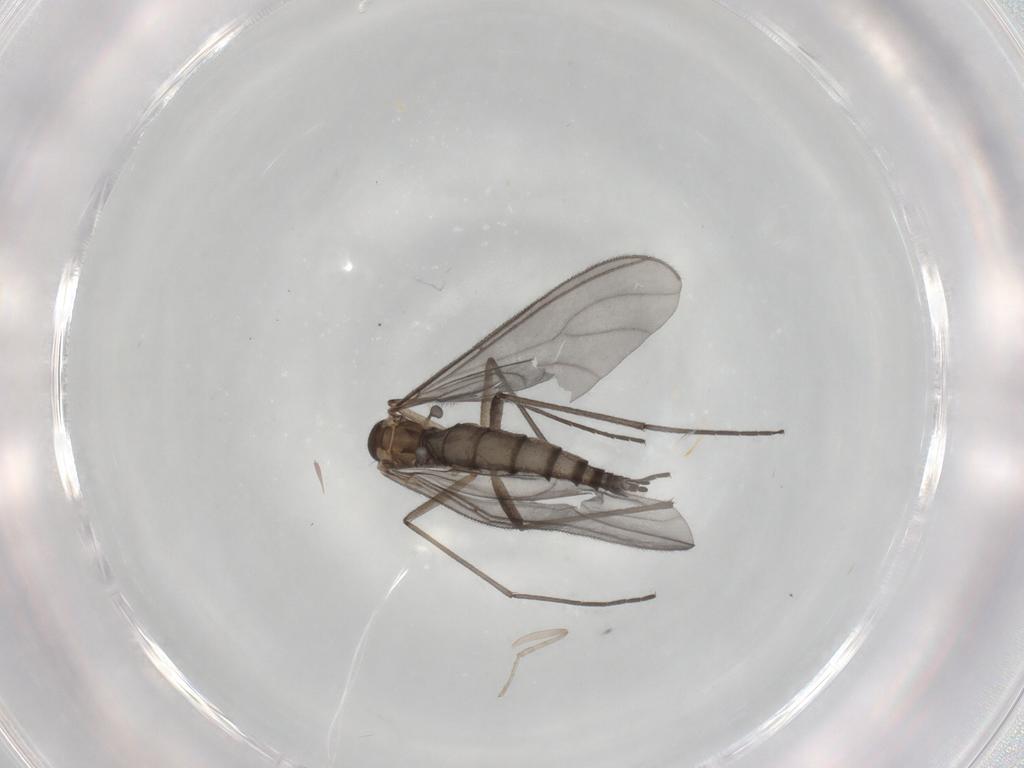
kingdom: Animalia
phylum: Arthropoda
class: Insecta
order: Diptera
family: Sciaridae
